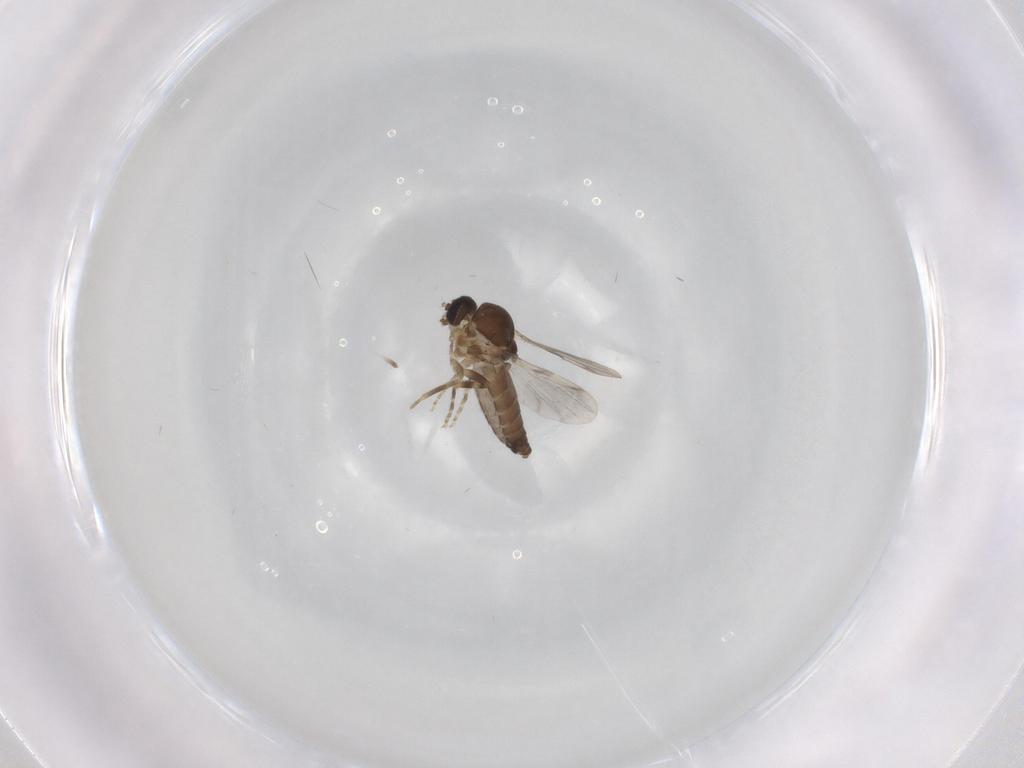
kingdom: Animalia
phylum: Arthropoda
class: Insecta
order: Diptera
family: Ceratopogonidae
